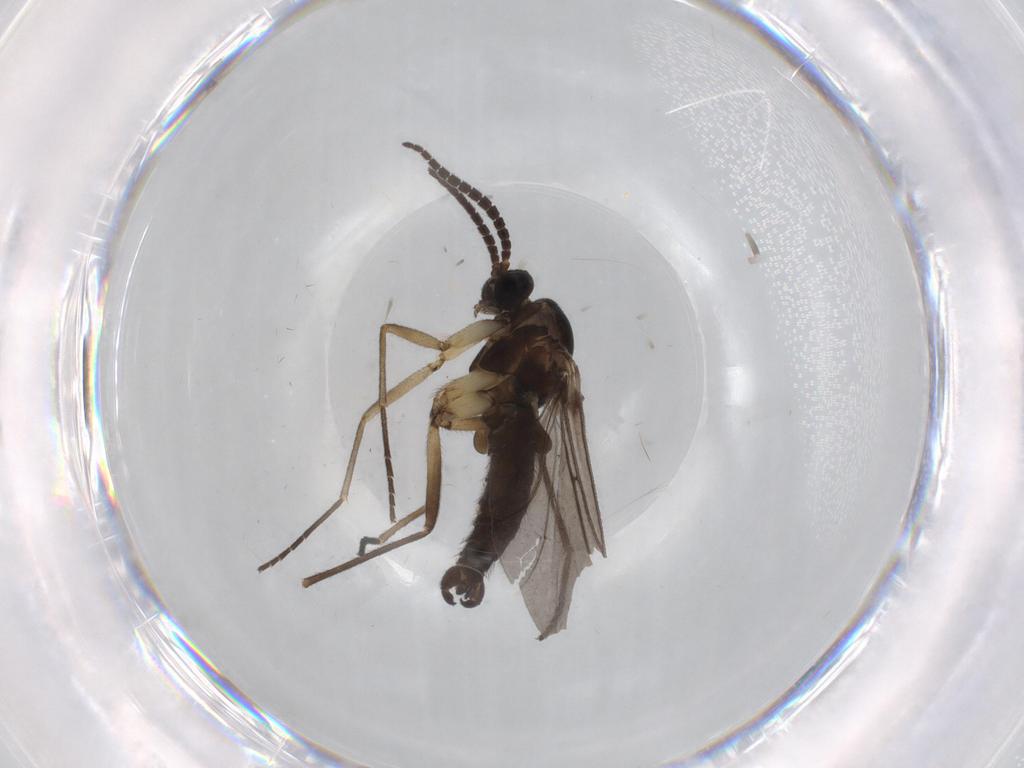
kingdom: Animalia
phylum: Arthropoda
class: Insecta
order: Diptera
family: Sciaridae
